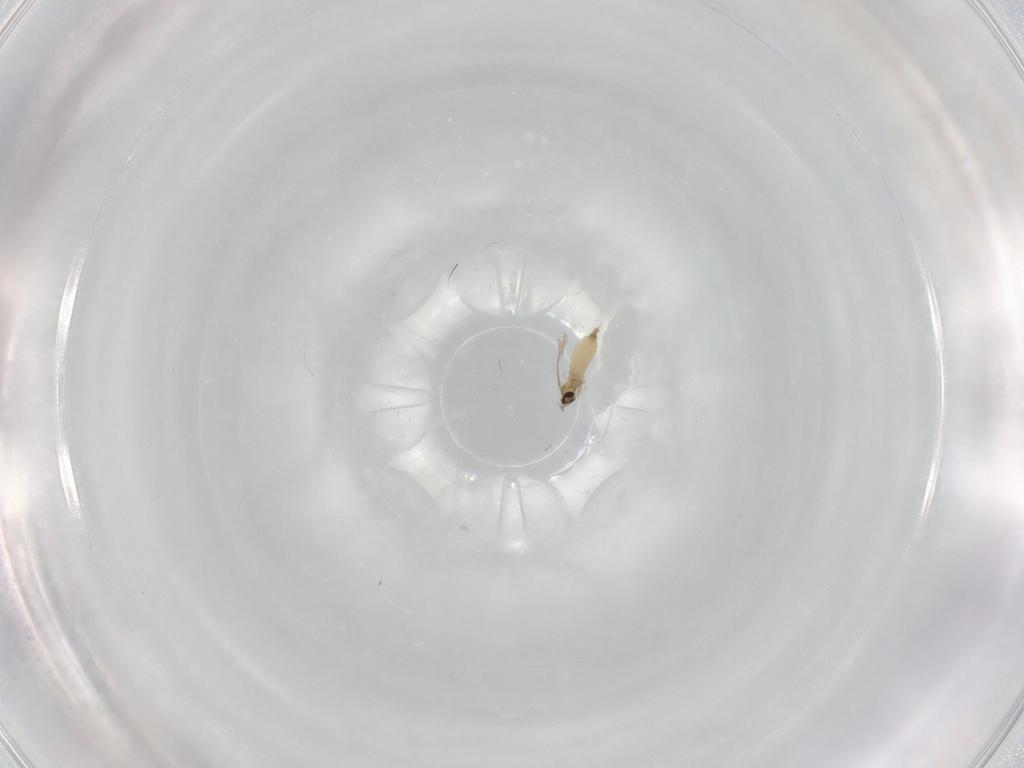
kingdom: Animalia
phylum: Arthropoda
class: Insecta
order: Diptera
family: Tabanidae
